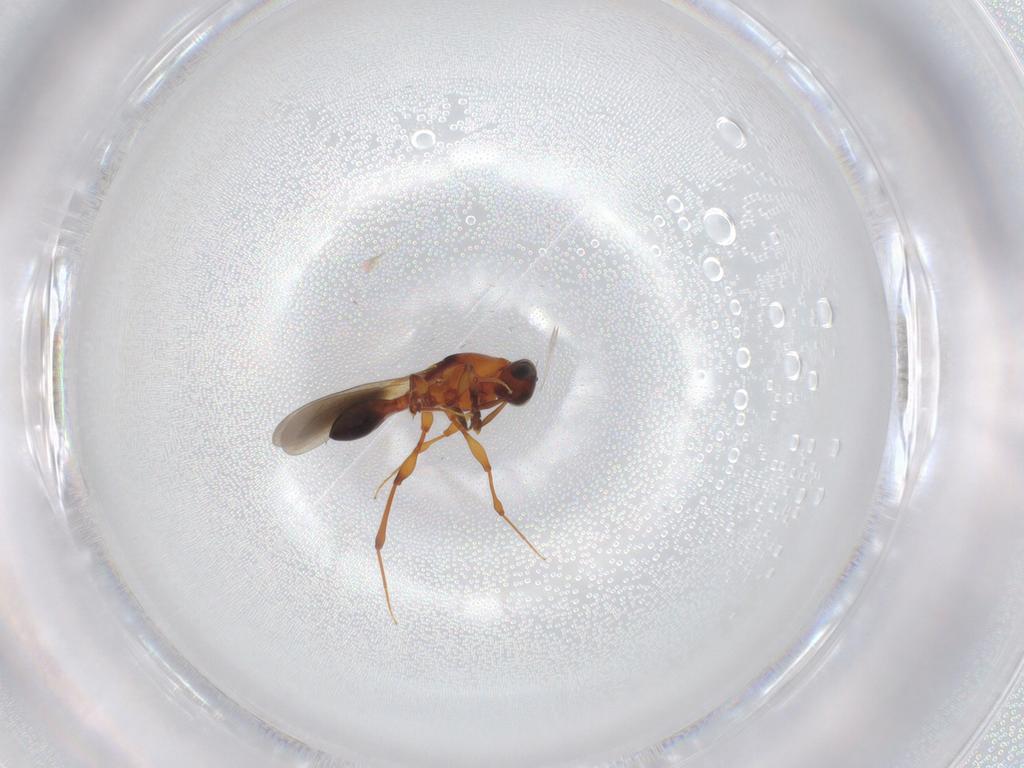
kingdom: Animalia
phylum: Arthropoda
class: Insecta
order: Hymenoptera
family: Platygastridae
